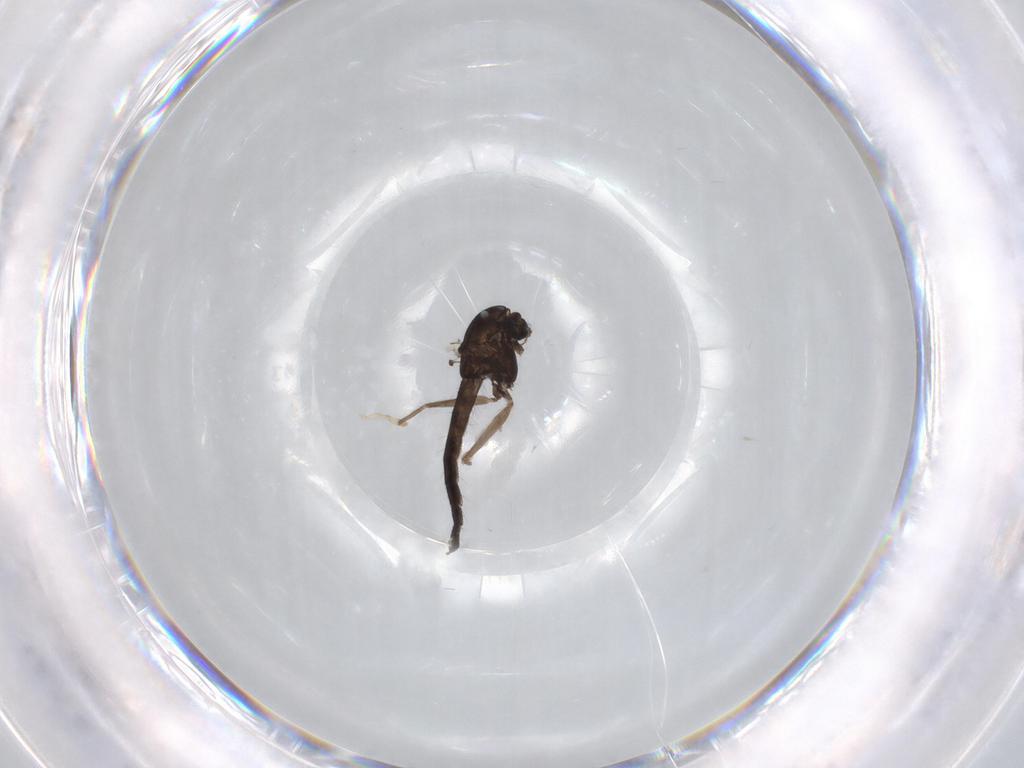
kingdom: Animalia
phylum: Arthropoda
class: Insecta
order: Diptera
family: Chironomidae
